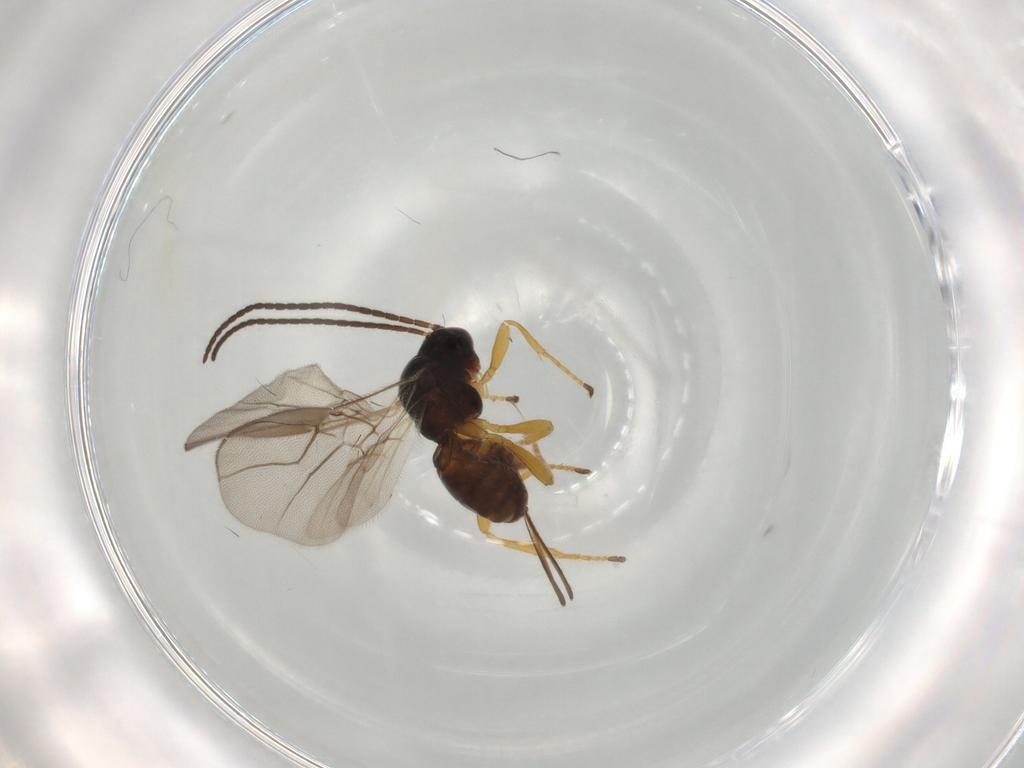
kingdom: Animalia
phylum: Arthropoda
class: Insecta
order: Hymenoptera
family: Braconidae
